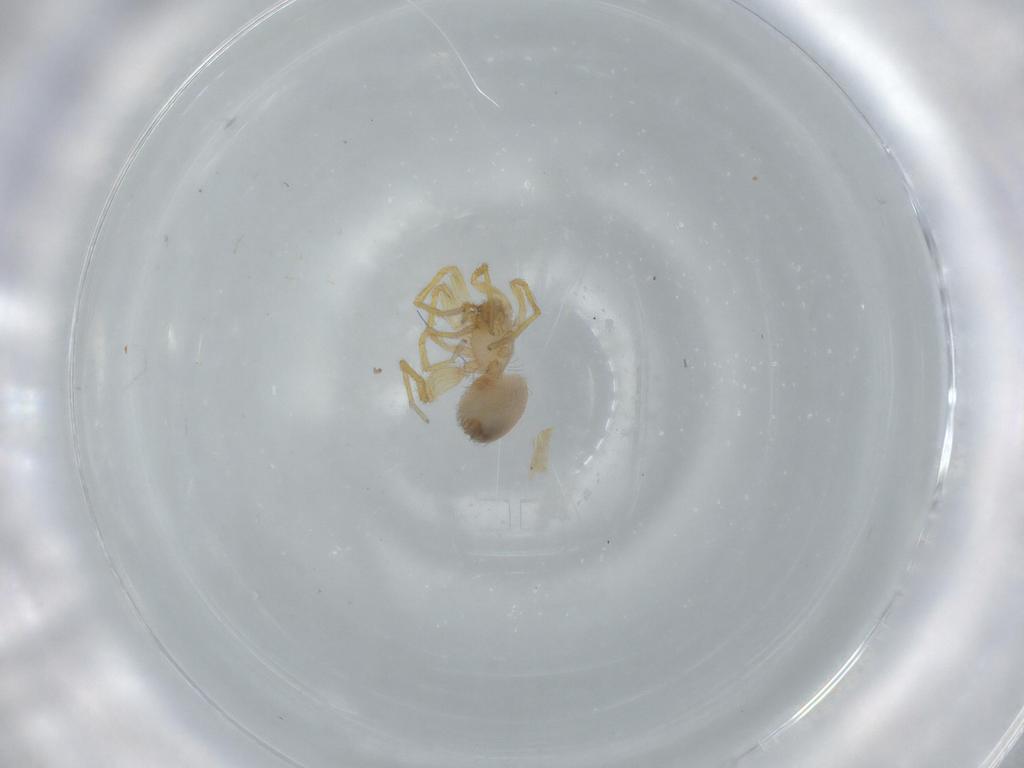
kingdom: Animalia
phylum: Arthropoda
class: Arachnida
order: Araneae
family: Oonopidae
